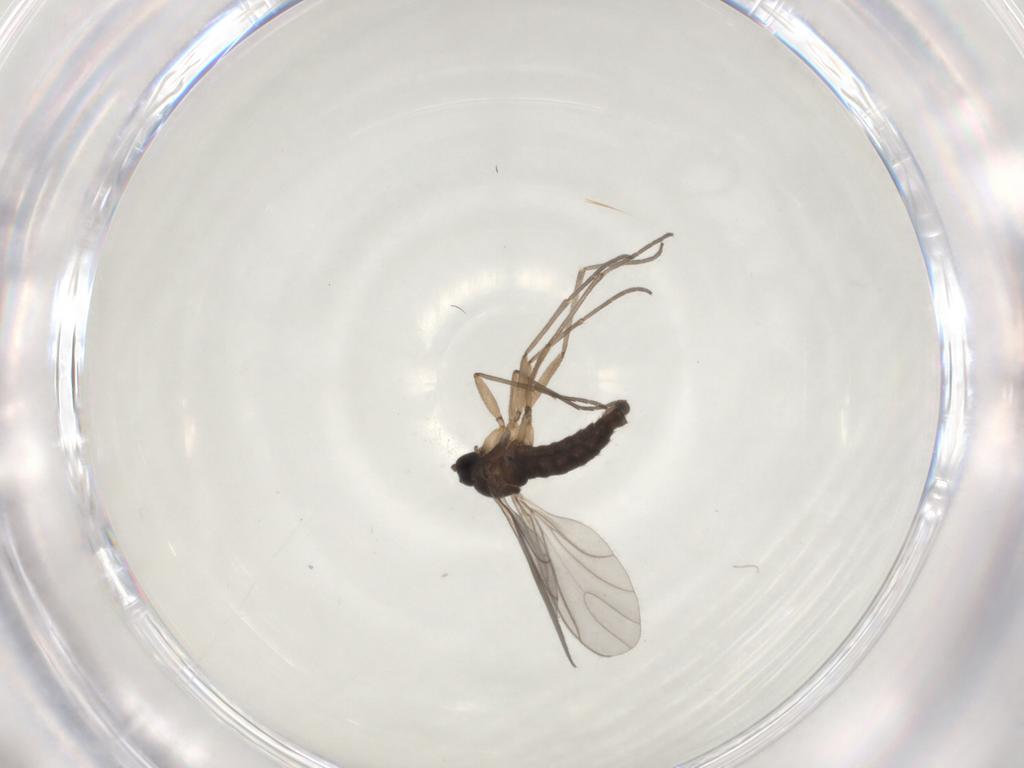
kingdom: Animalia
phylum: Arthropoda
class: Insecta
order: Diptera
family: Sciaridae
